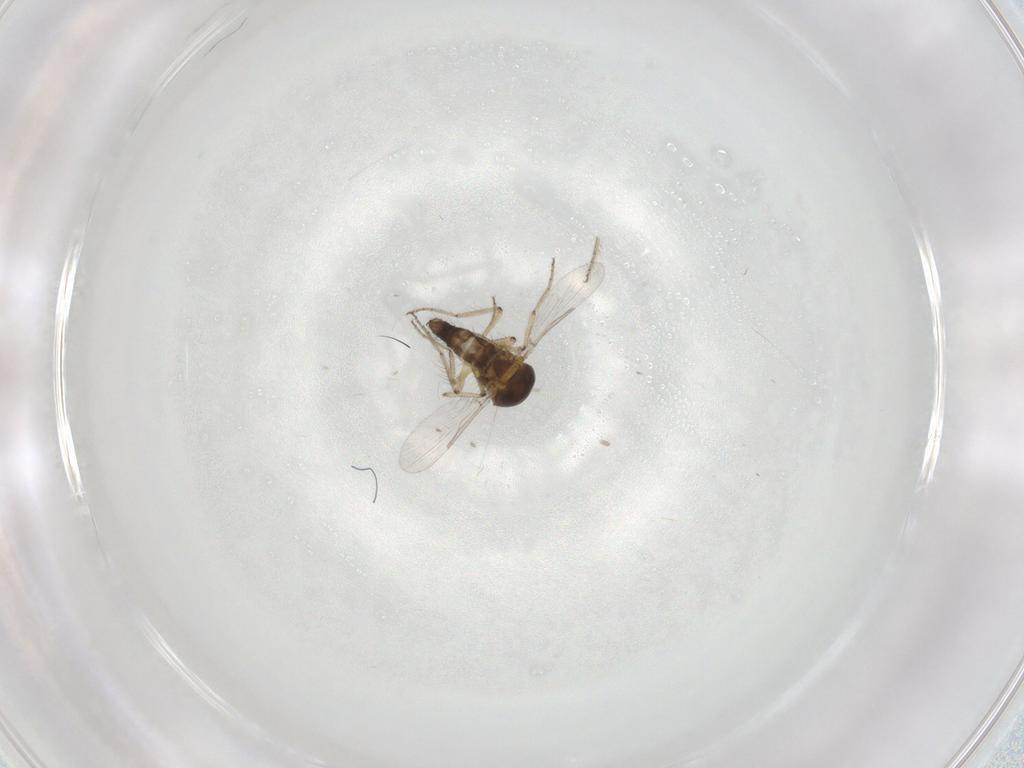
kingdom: Animalia
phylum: Arthropoda
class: Insecta
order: Diptera
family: Ceratopogonidae
